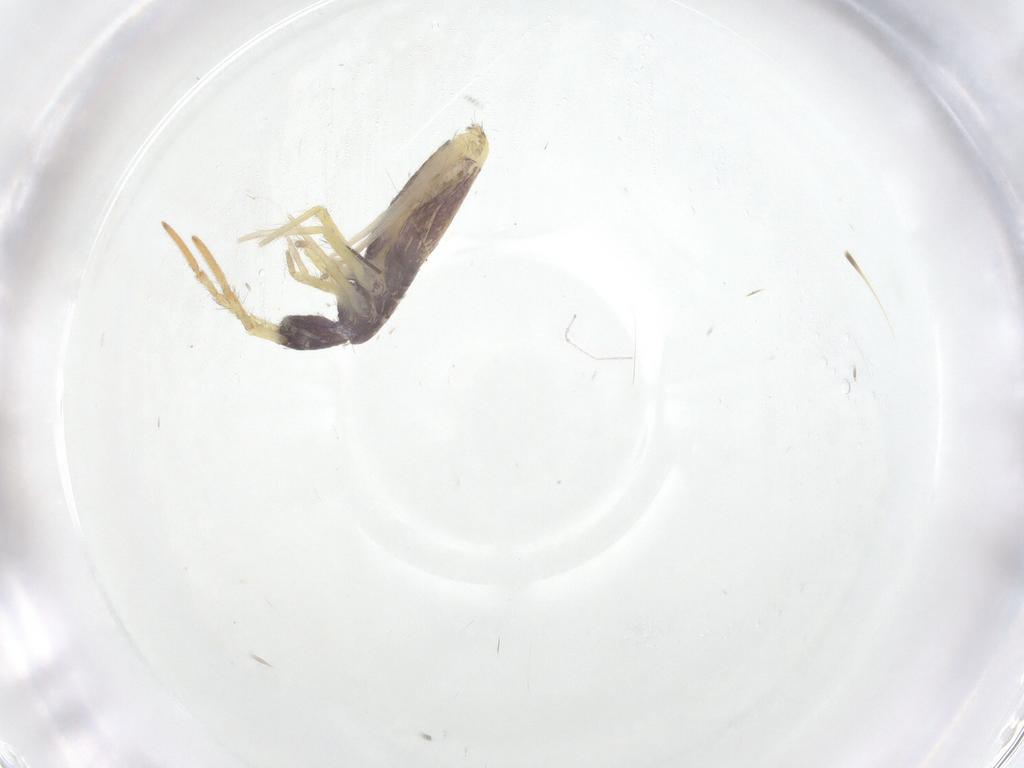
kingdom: Animalia
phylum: Arthropoda
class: Collembola
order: Entomobryomorpha
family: Entomobryidae
